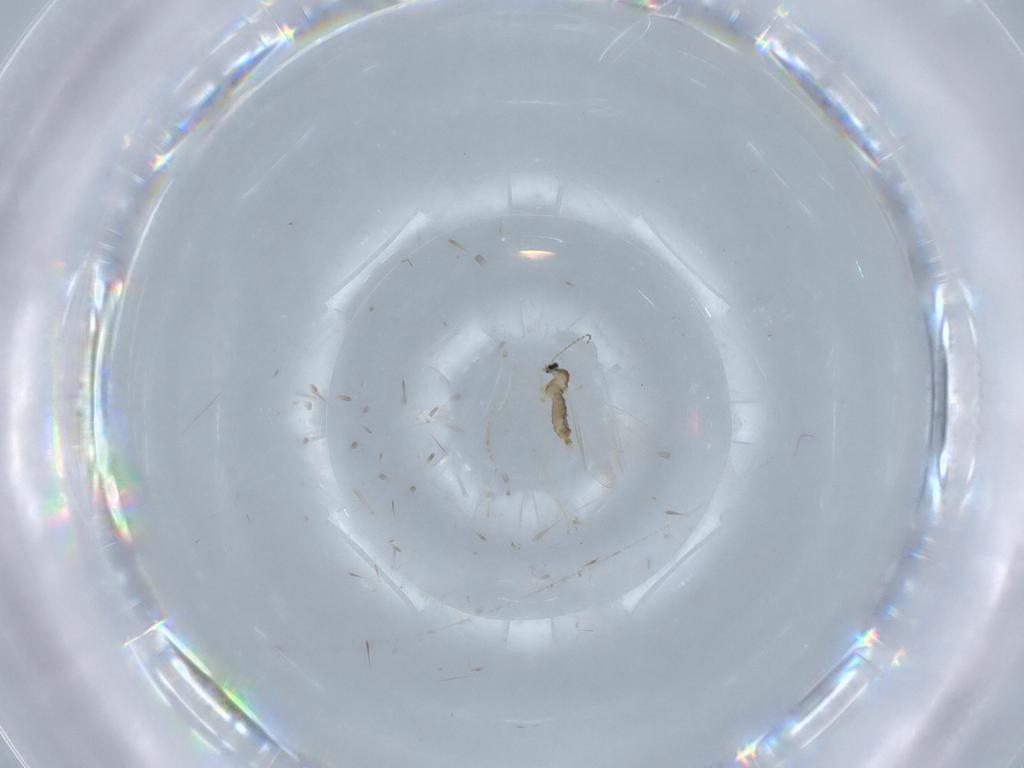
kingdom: Animalia
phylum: Arthropoda
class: Insecta
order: Diptera
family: Cecidomyiidae
